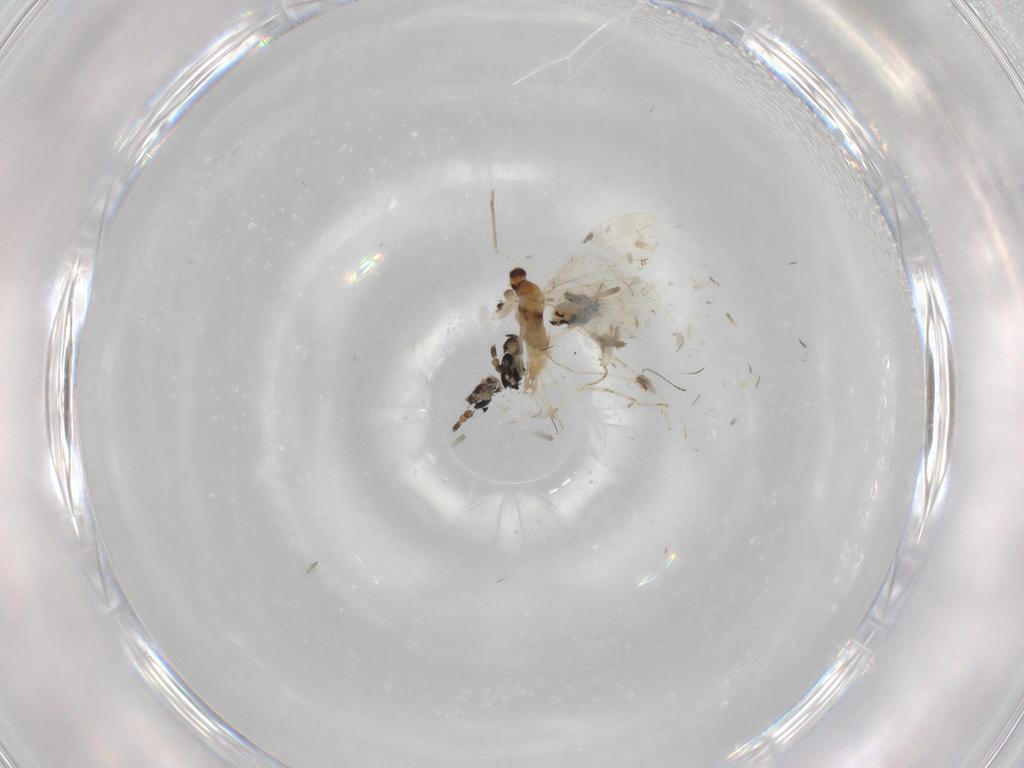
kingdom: Animalia
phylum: Arthropoda
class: Insecta
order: Diptera
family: Cecidomyiidae
